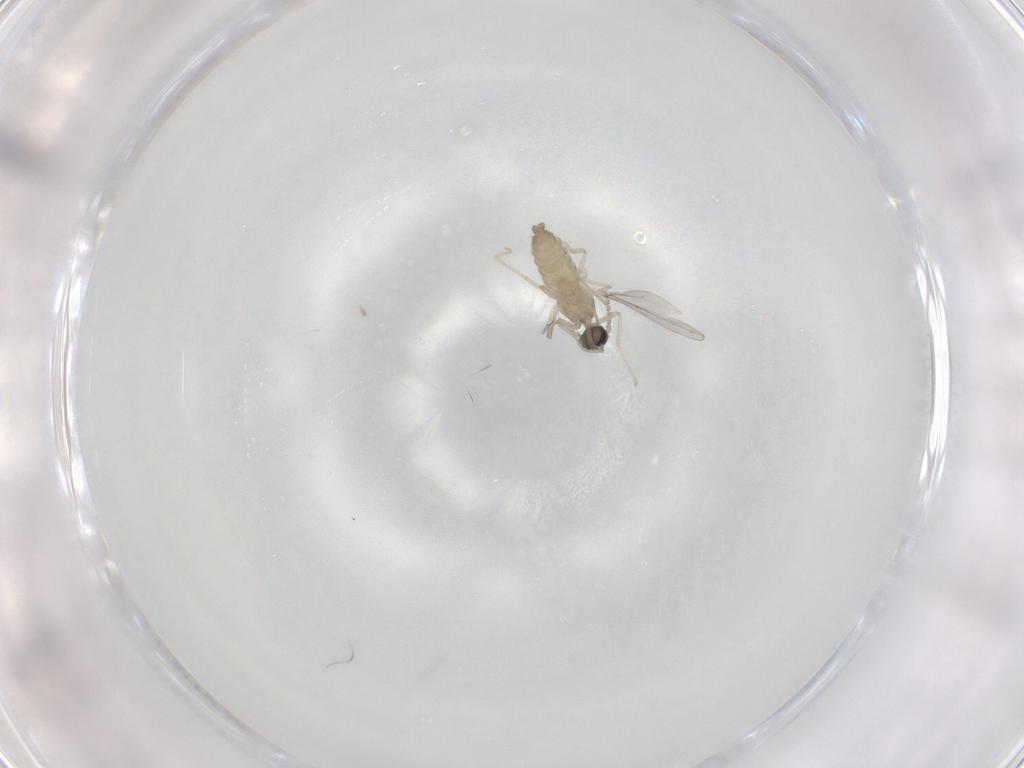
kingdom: Animalia
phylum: Arthropoda
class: Insecta
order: Diptera
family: Cecidomyiidae
